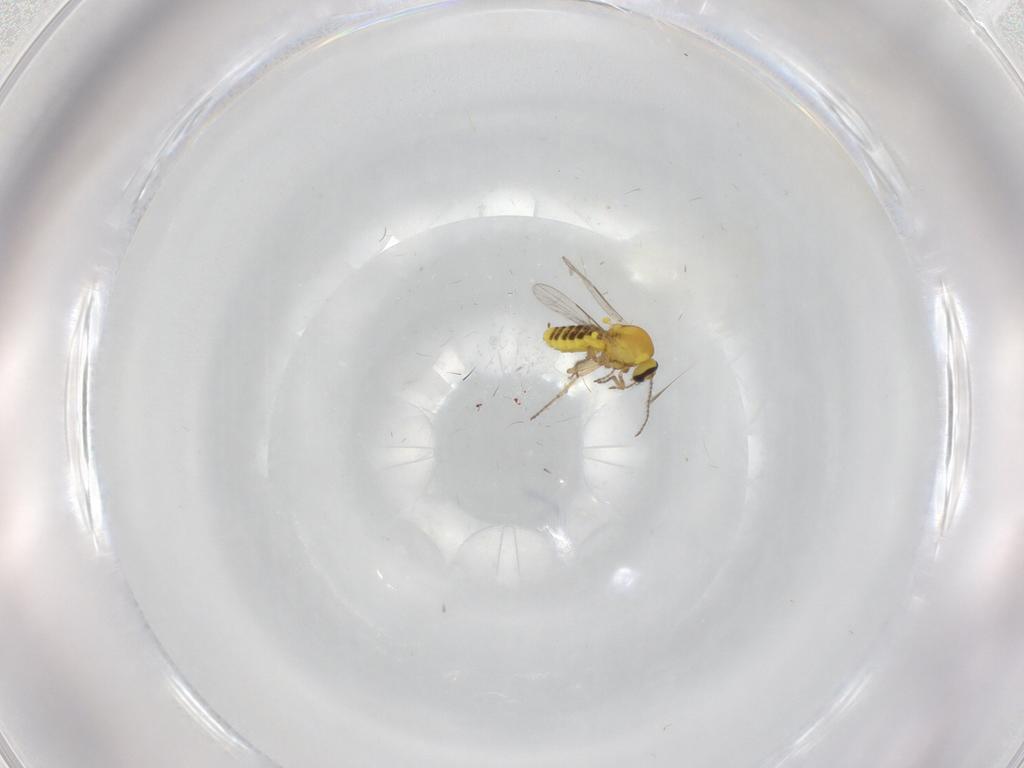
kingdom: Animalia
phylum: Arthropoda
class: Insecta
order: Diptera
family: Ceratopogonidae
